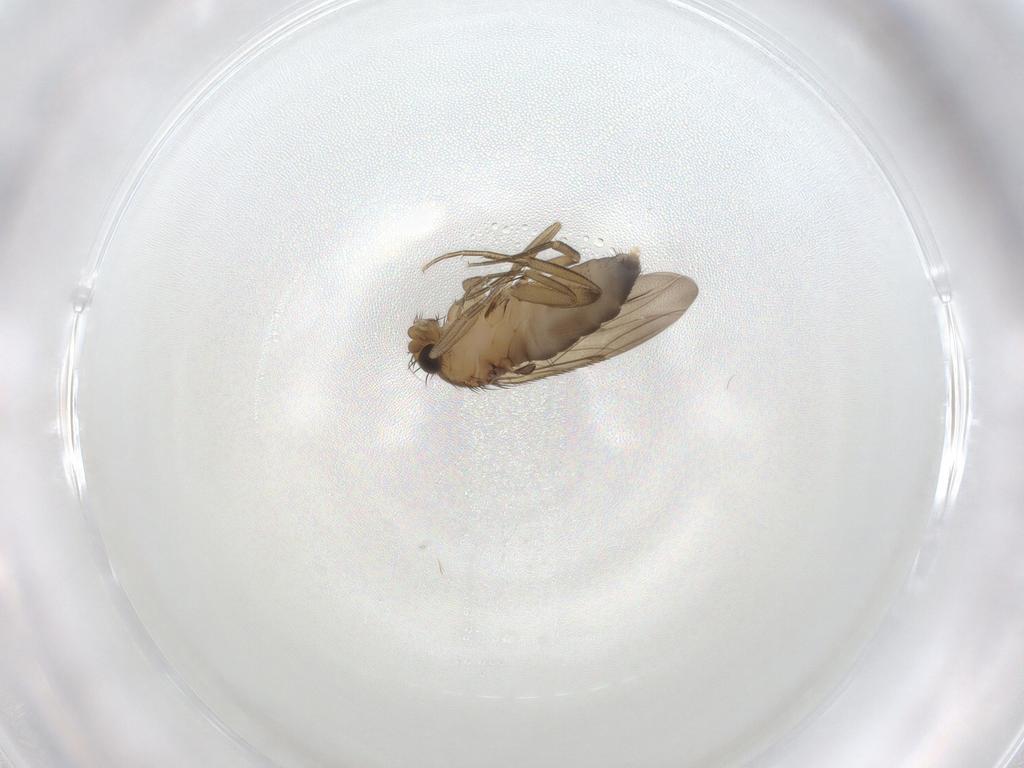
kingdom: Animalia
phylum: Arthropoda
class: Insecta
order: Diptera
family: Phoridae
